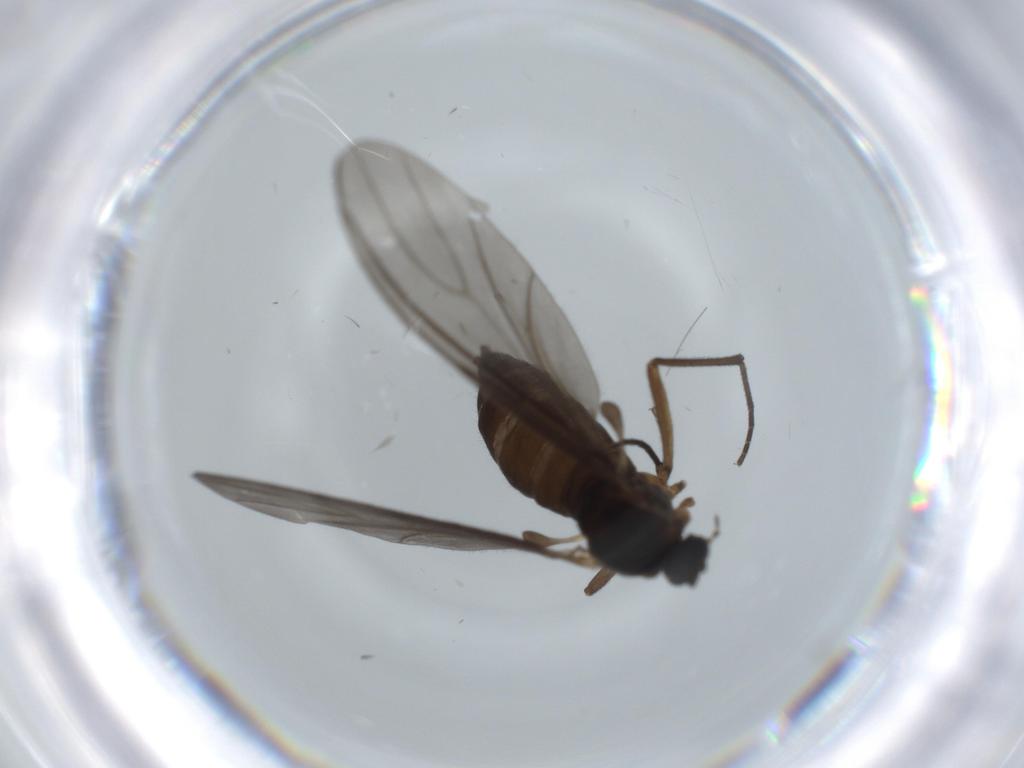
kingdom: Animalia
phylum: Arthropoda
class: Insecta
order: Diptera
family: Sciaridae
